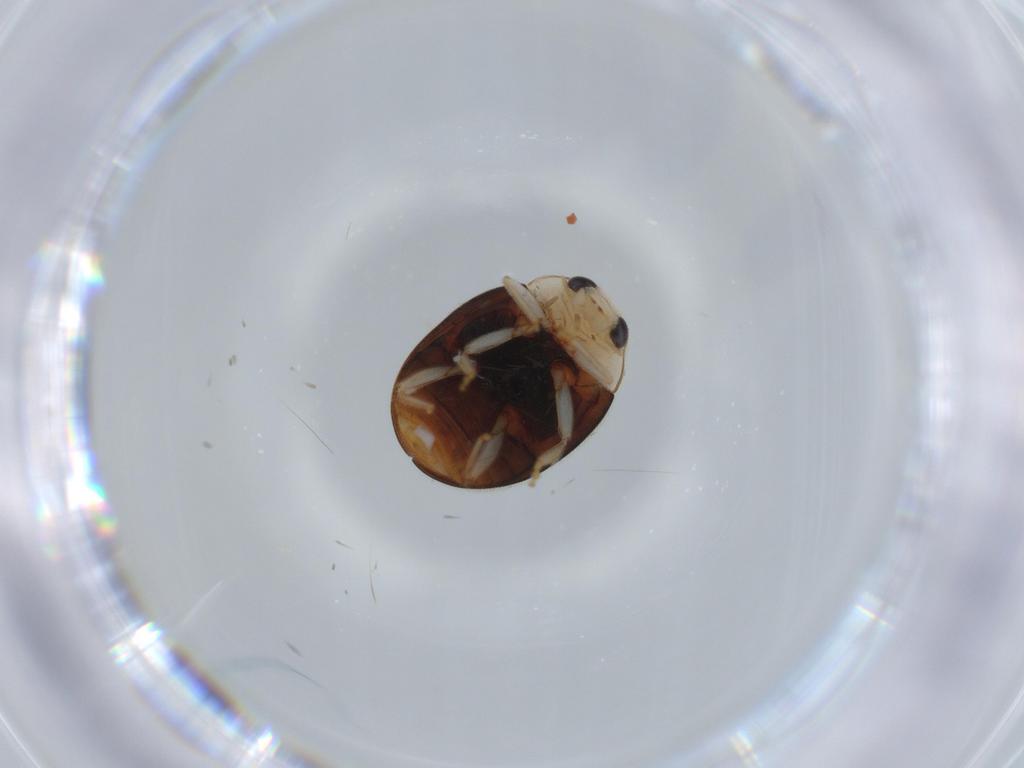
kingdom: Animalia
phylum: Arthropoda
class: Insecta
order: Coleoptera
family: Coccinellidae
